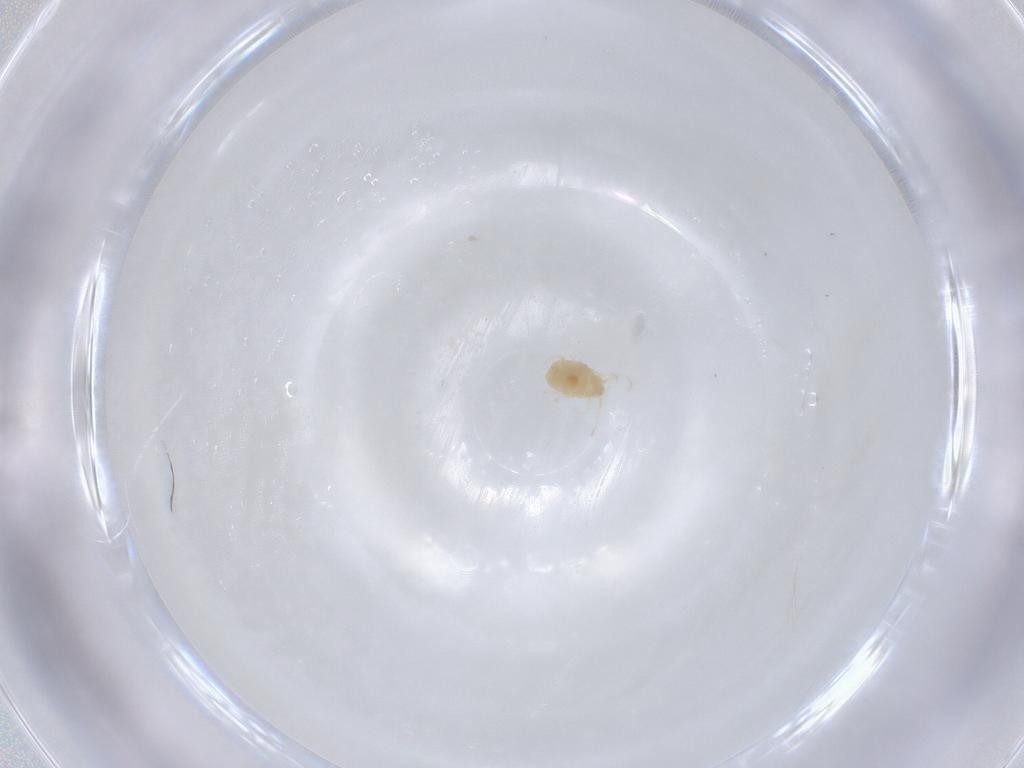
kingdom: Animalia
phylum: Arthropoda
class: Arachnida
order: Trombidiformes
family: Tetranychidae
